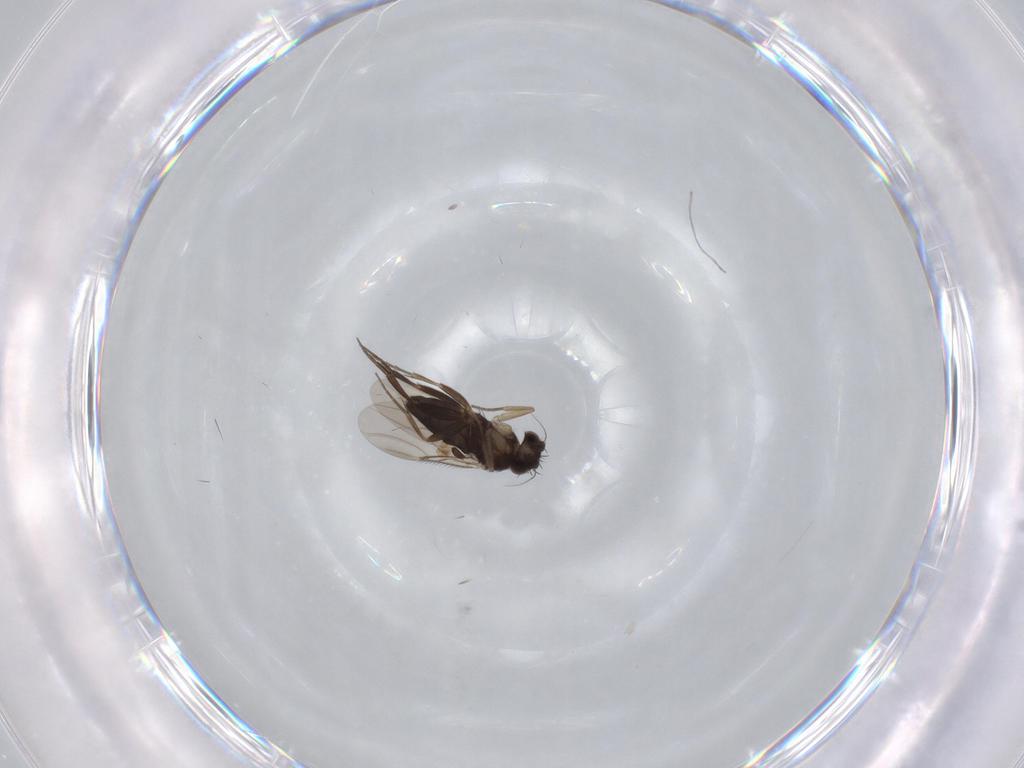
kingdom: Animalia
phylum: Arthropoda
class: Insecta
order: Diptera
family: Phoridae
